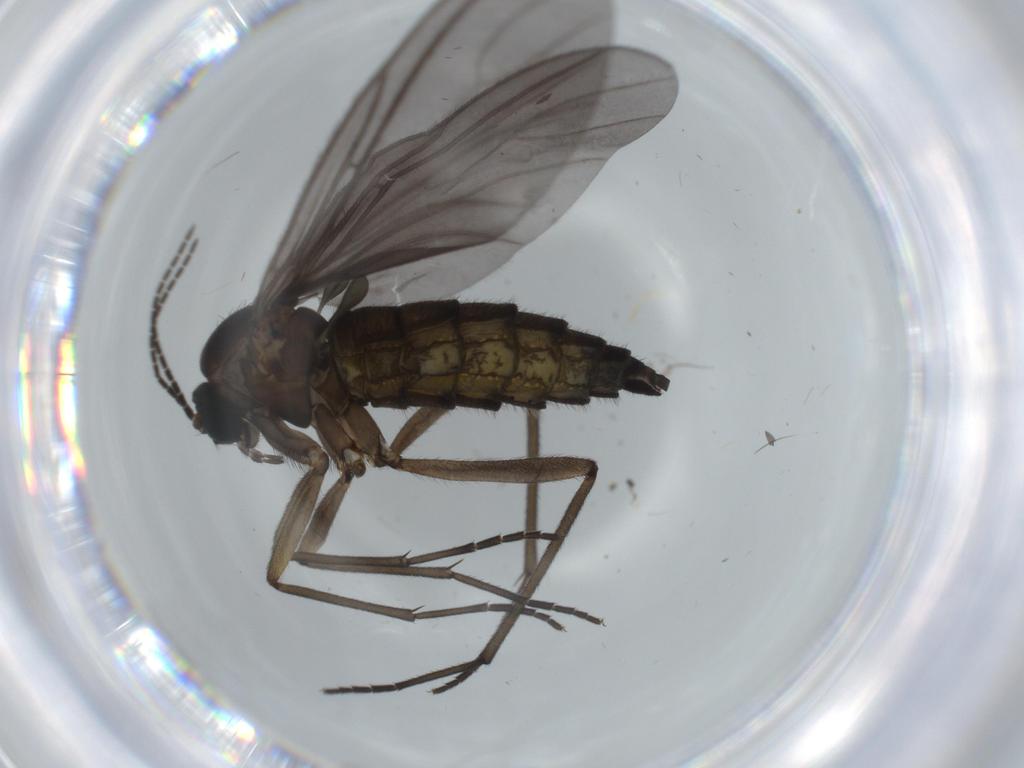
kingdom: Animalia
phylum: Arthropoda
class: Insecta
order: Diptera
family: Sciaridae
